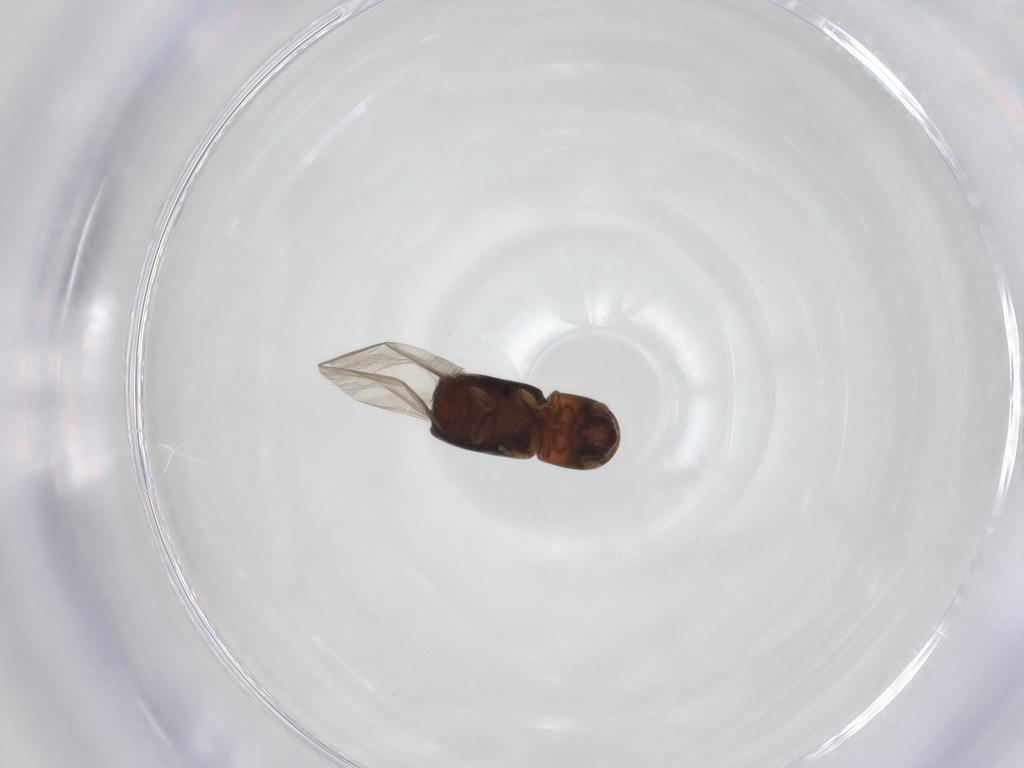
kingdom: Animalia
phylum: Arthropoda
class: Insecta
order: Coleoptera
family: Curculionidae
